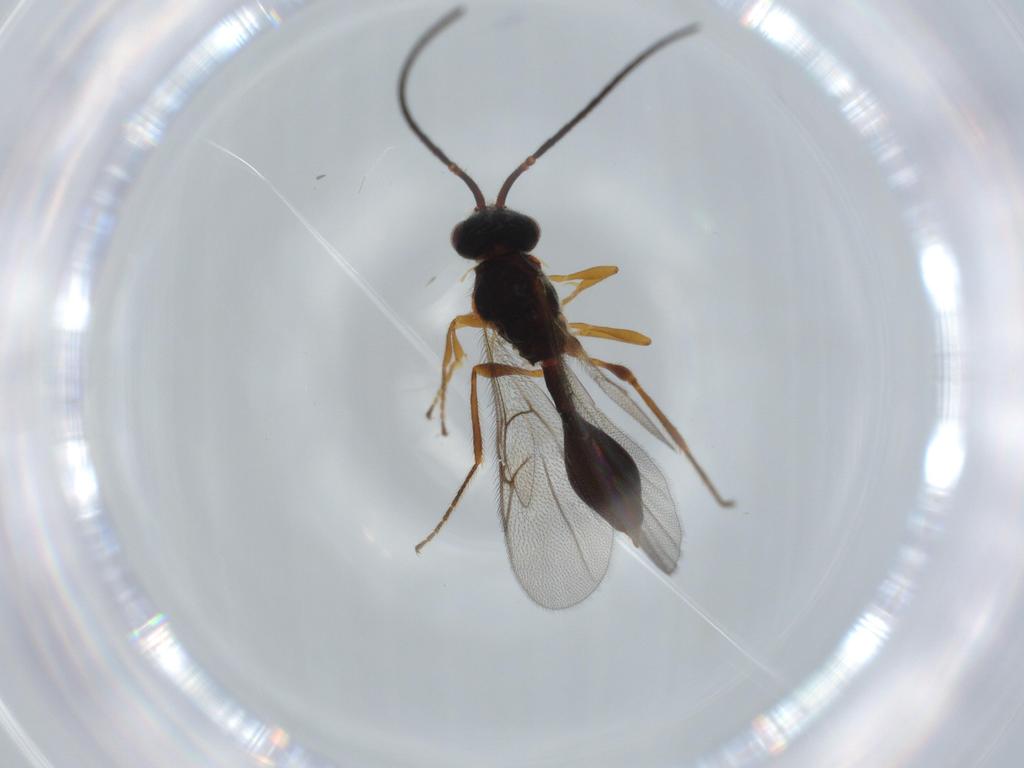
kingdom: Animalia
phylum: Arthropoda
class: Insecta
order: Hymenoptera
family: Diapriidae
